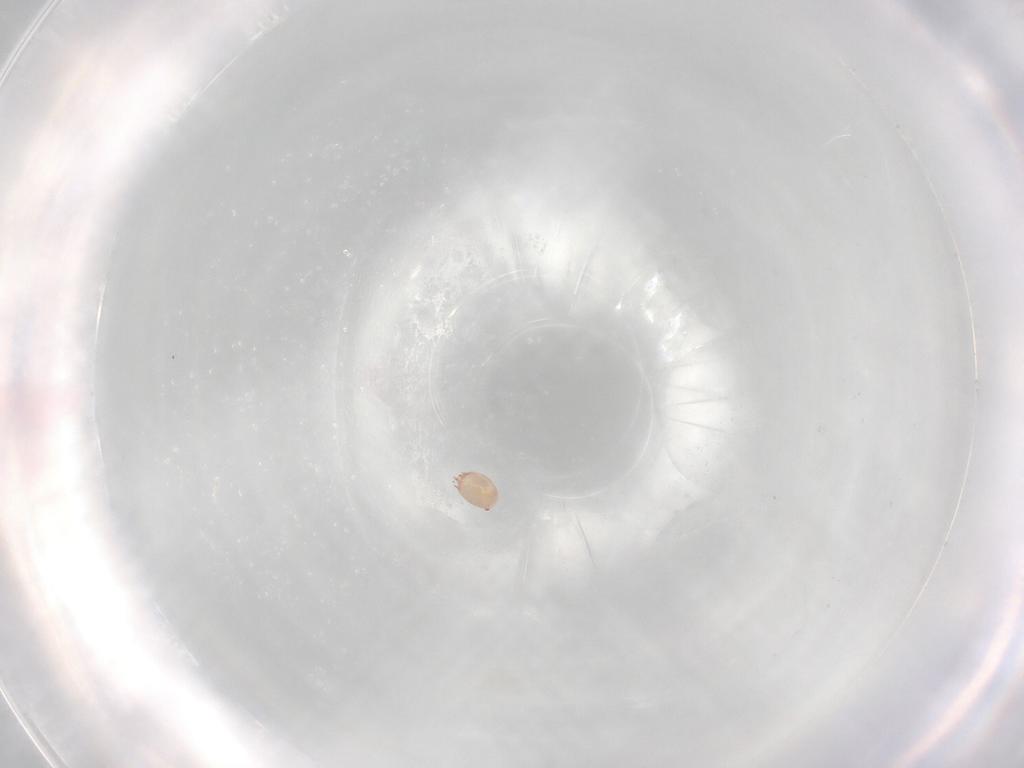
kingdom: Animalia
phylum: Arthropoda
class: Arachnida
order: Sarcoptiformes
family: Acaridae
